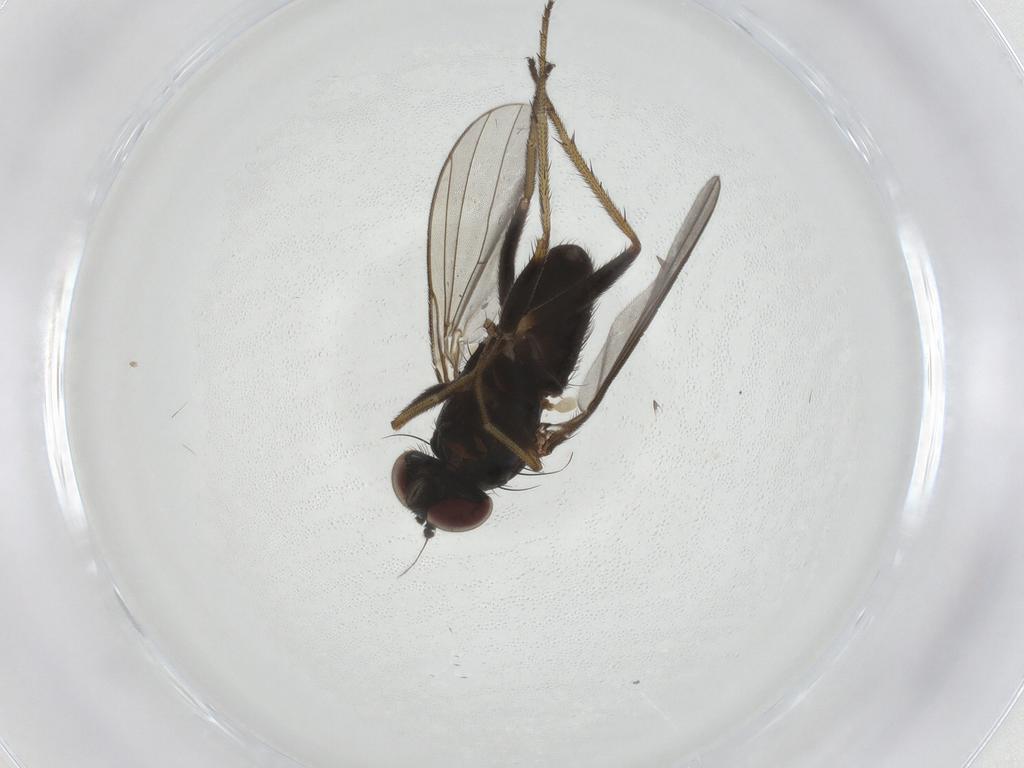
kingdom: Animalia
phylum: Arthropoda
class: Insecta
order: Diptera
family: Dolichopodidae
